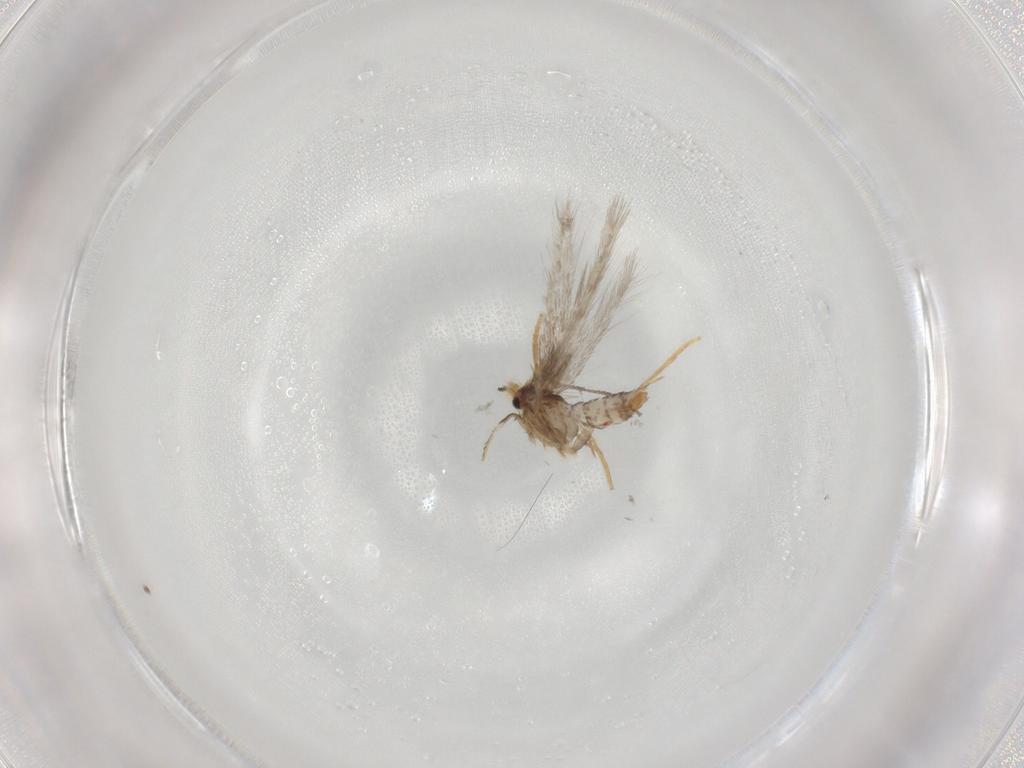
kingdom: Animalia
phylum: Arthropoda
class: Insecta
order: Lepidoptera
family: Nepticulidae
